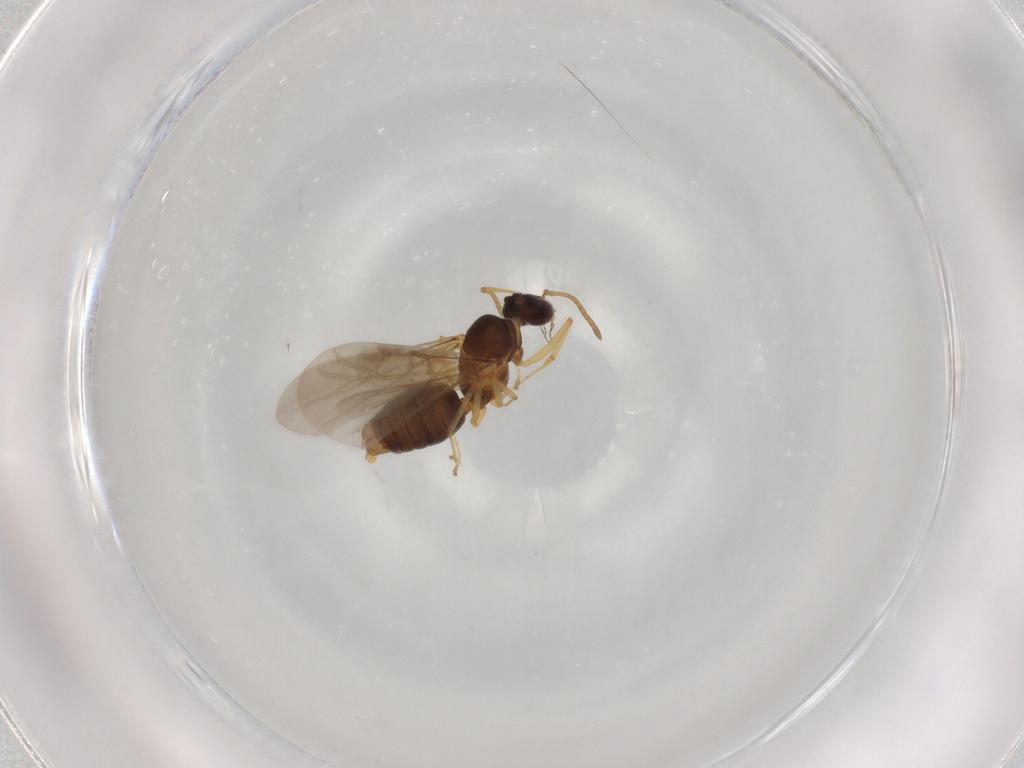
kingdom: Animalia
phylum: Arthropoda
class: Insecta
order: Hymenoptera
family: Formicidae
